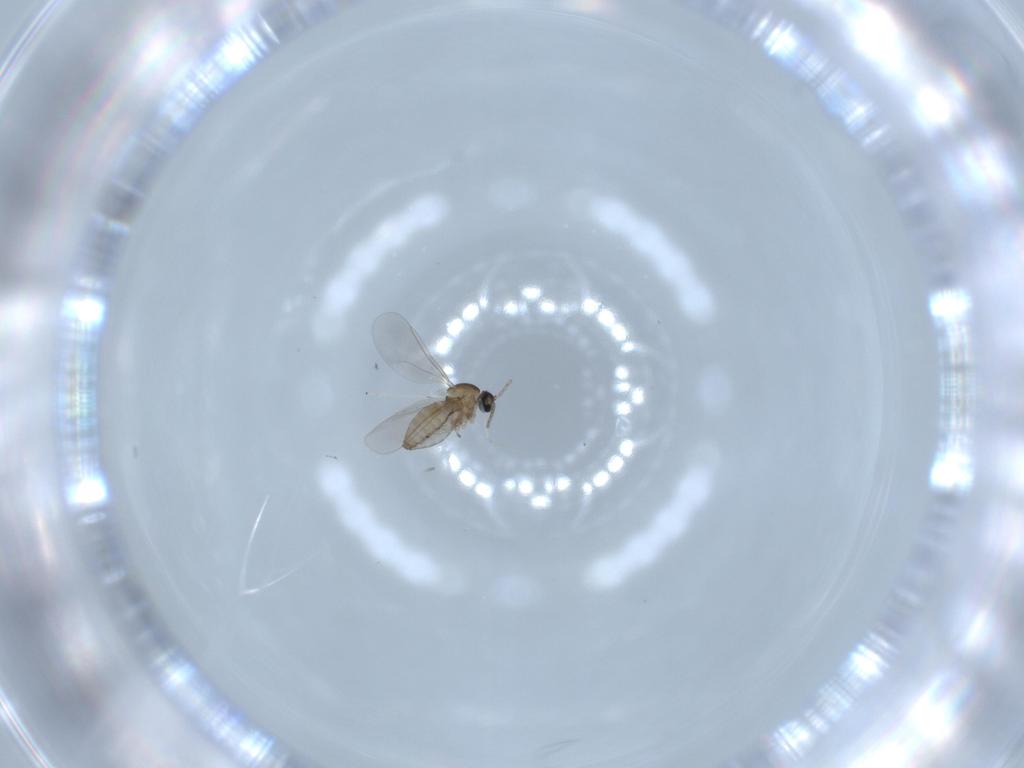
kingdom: Animalia
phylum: Arthropoda
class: Insecta
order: Diptera
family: Cecidomyiidae
